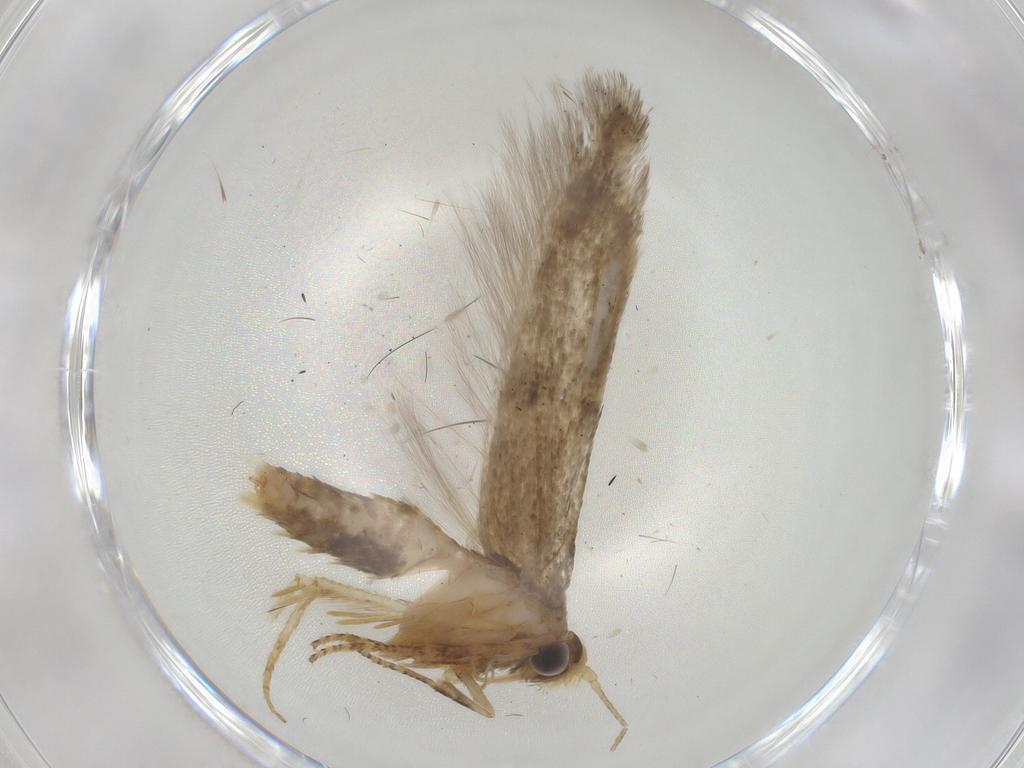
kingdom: Animalia
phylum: Arthropoda
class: Insecta
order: Lepidoptera
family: Coleophoridae
